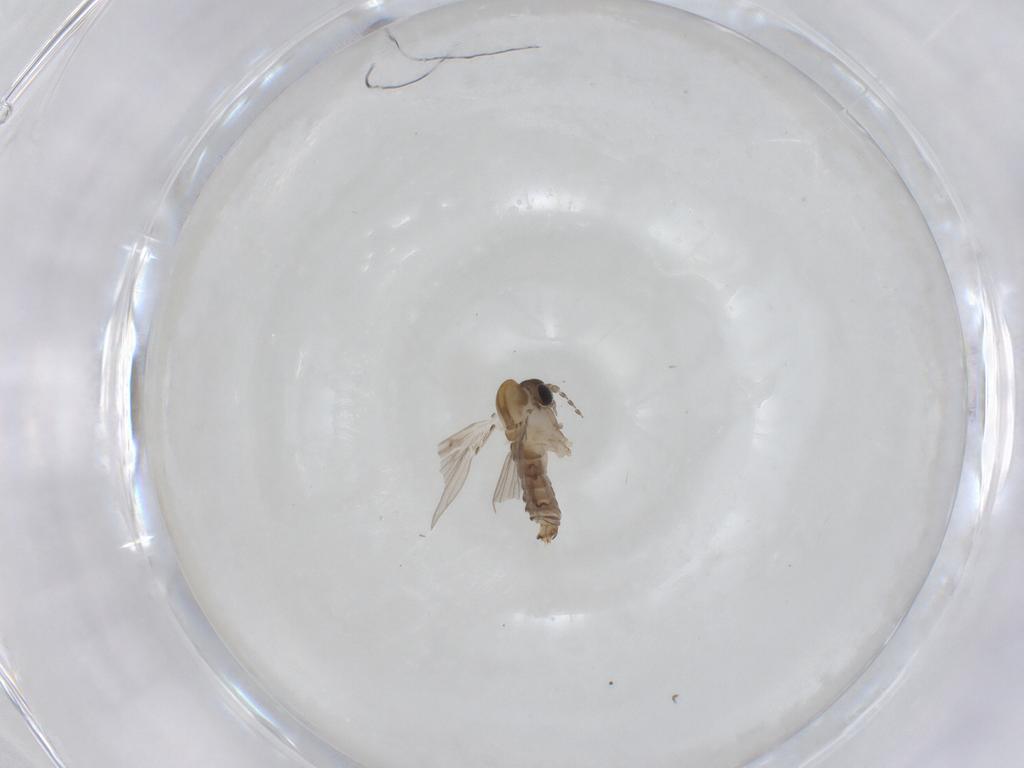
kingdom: Animalia
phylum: Arthropoda
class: Insecta
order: Diptera
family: Psychodidae
